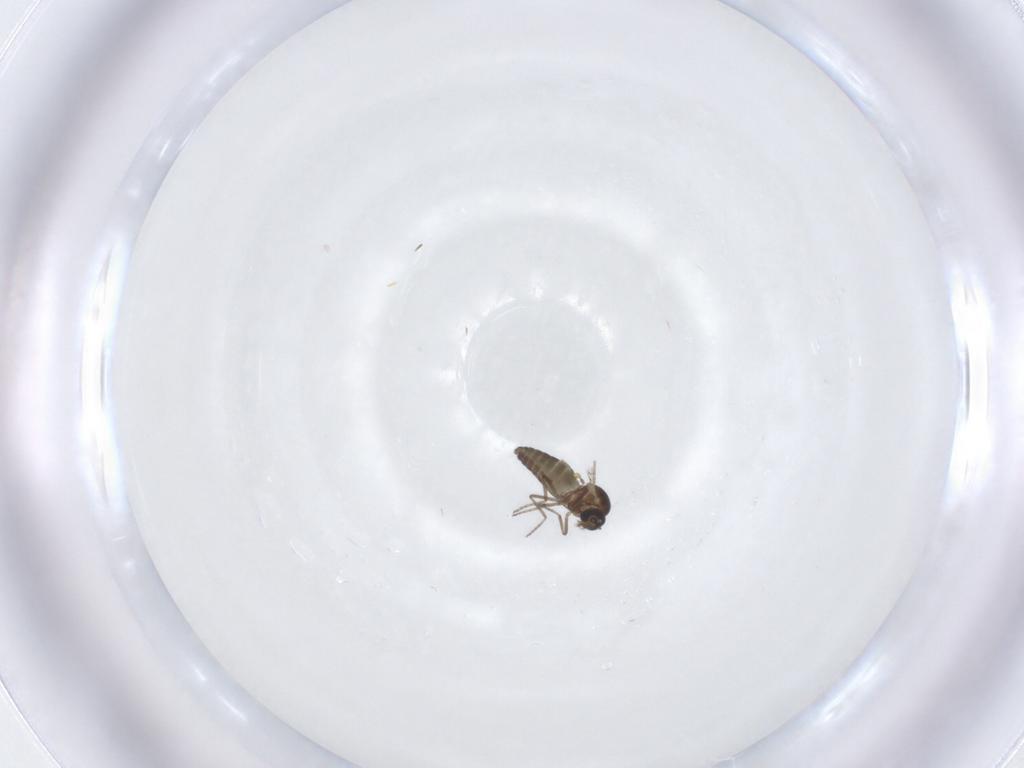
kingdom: Animalia
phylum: Arthropoda
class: Insecta
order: Diptera
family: Ceratopogonidae
